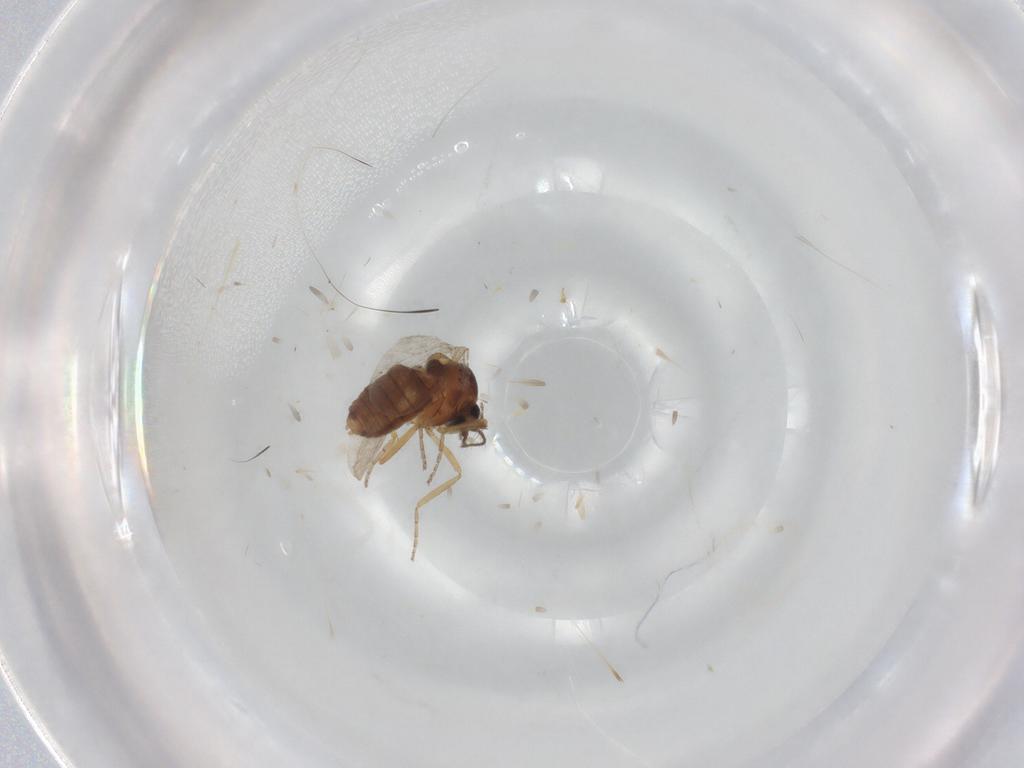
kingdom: Animalia
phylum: Arthropoda
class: Insecta
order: Diptera
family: Ceratopogonidae
